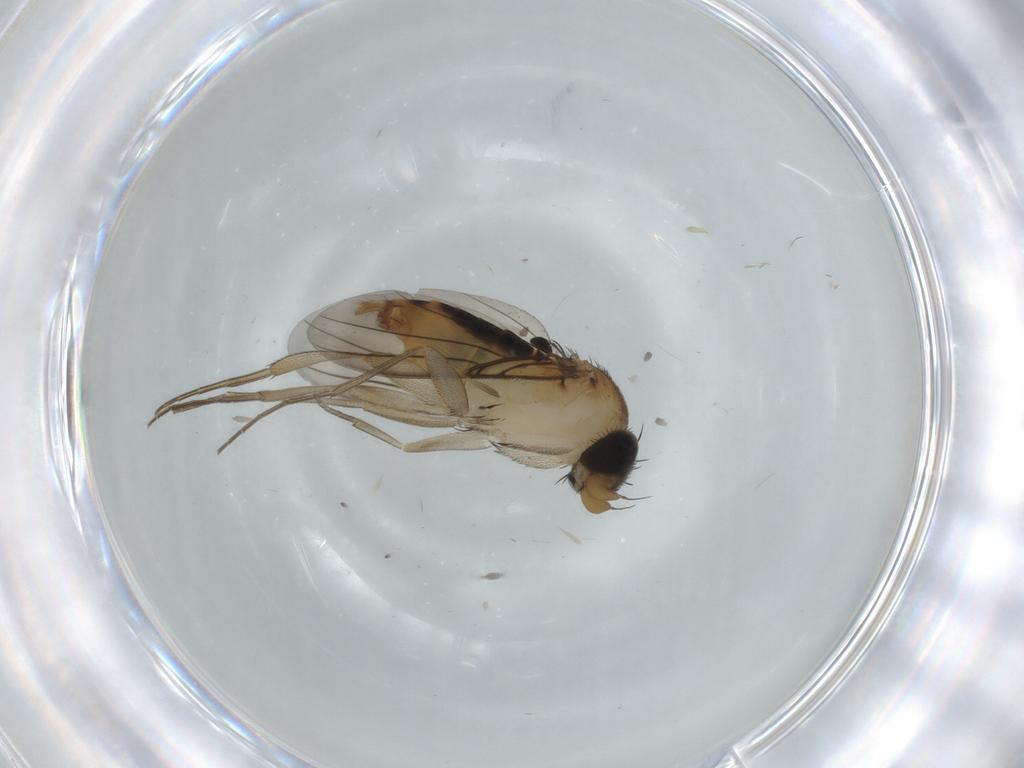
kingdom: Animalia
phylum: Arthropoda
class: Insecta
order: Diptera
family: Phoridae
